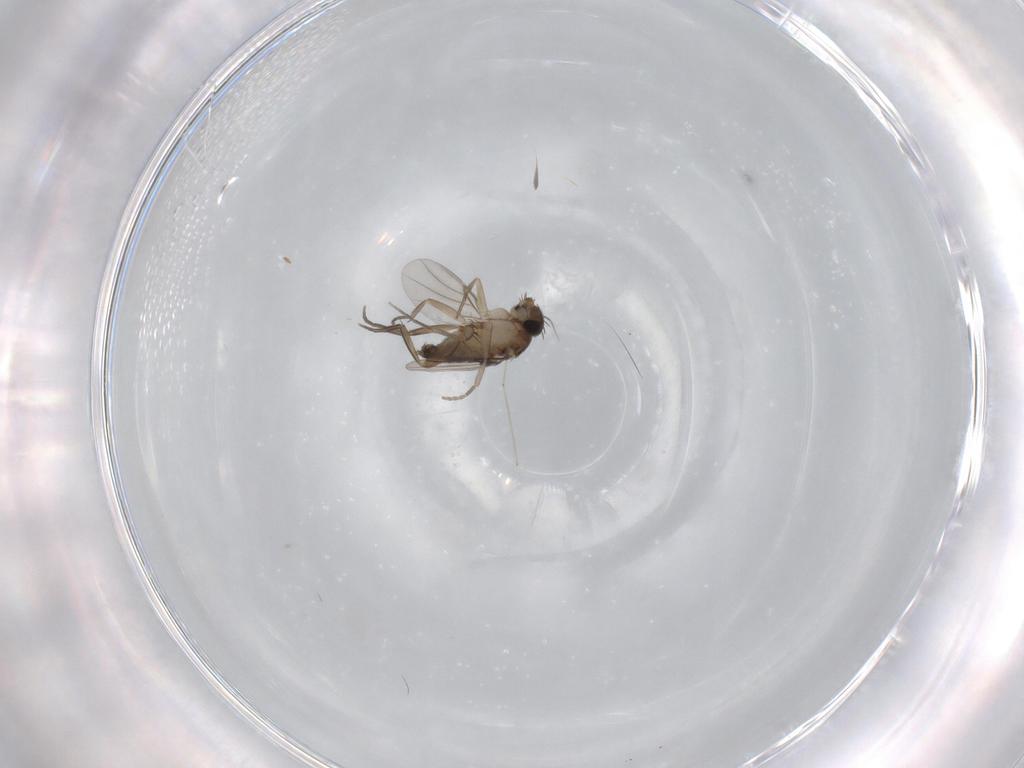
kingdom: Animalia
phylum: Arthropoda
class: Insecta
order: Diptera
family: Phoridae
